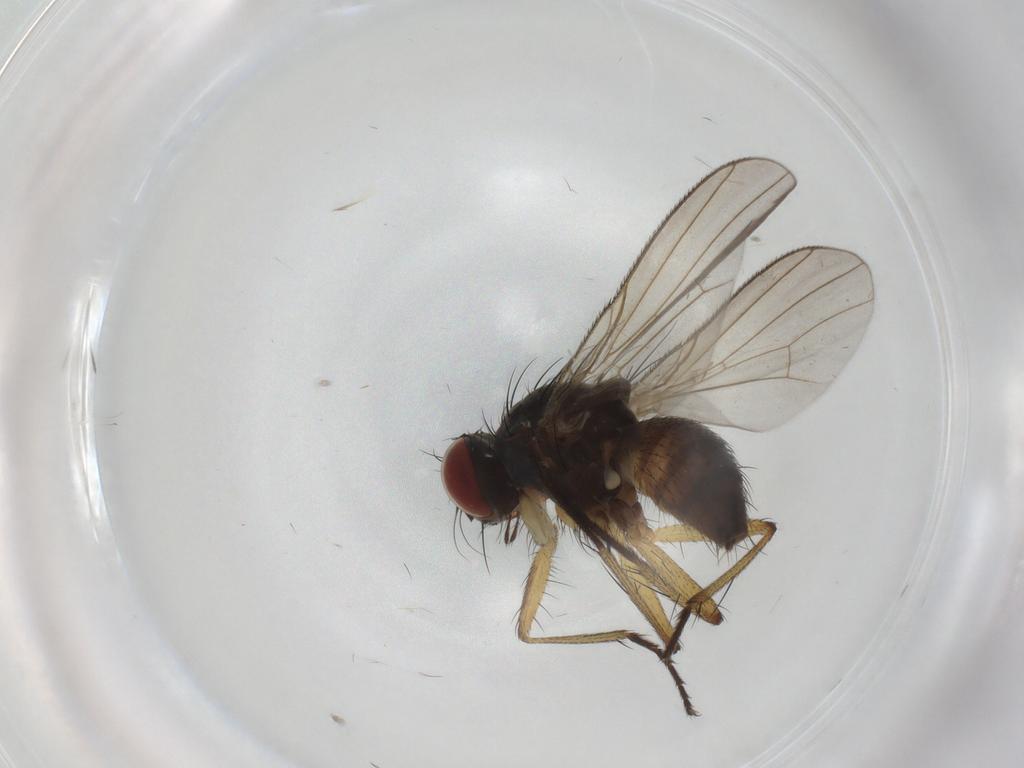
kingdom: Animalia
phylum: Arthropoda
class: Insecta
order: Diptera
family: Muscidae
